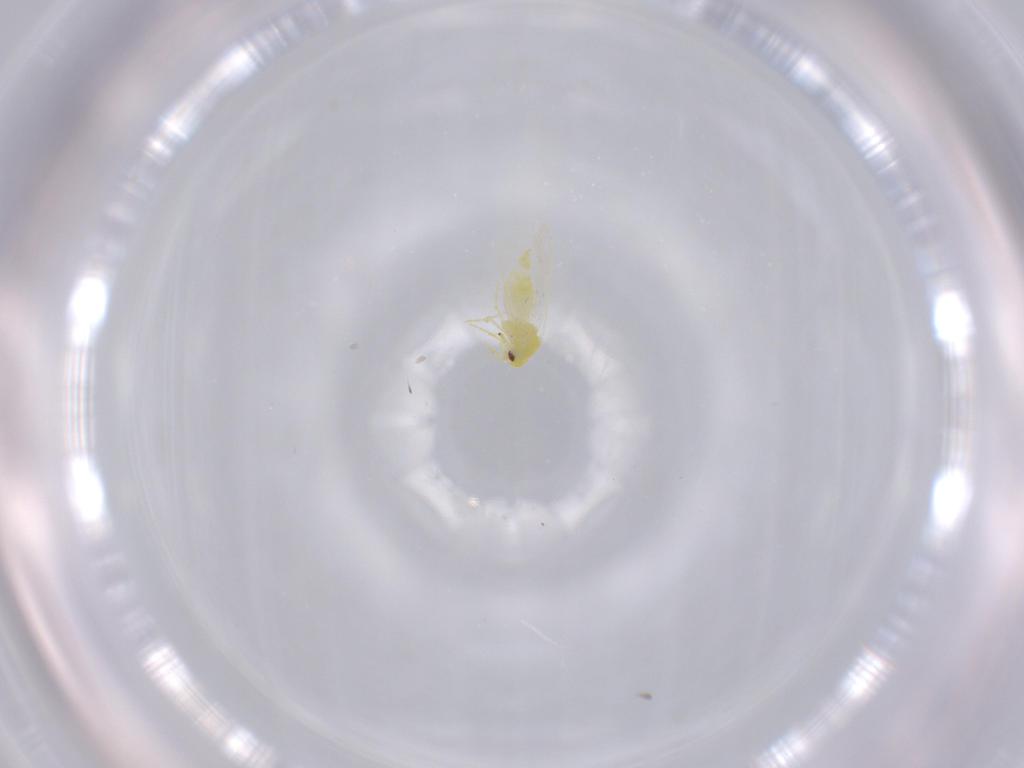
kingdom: Animalia
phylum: Arthropoda
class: Insecta
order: Hemiptera
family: Aleyrodidae
